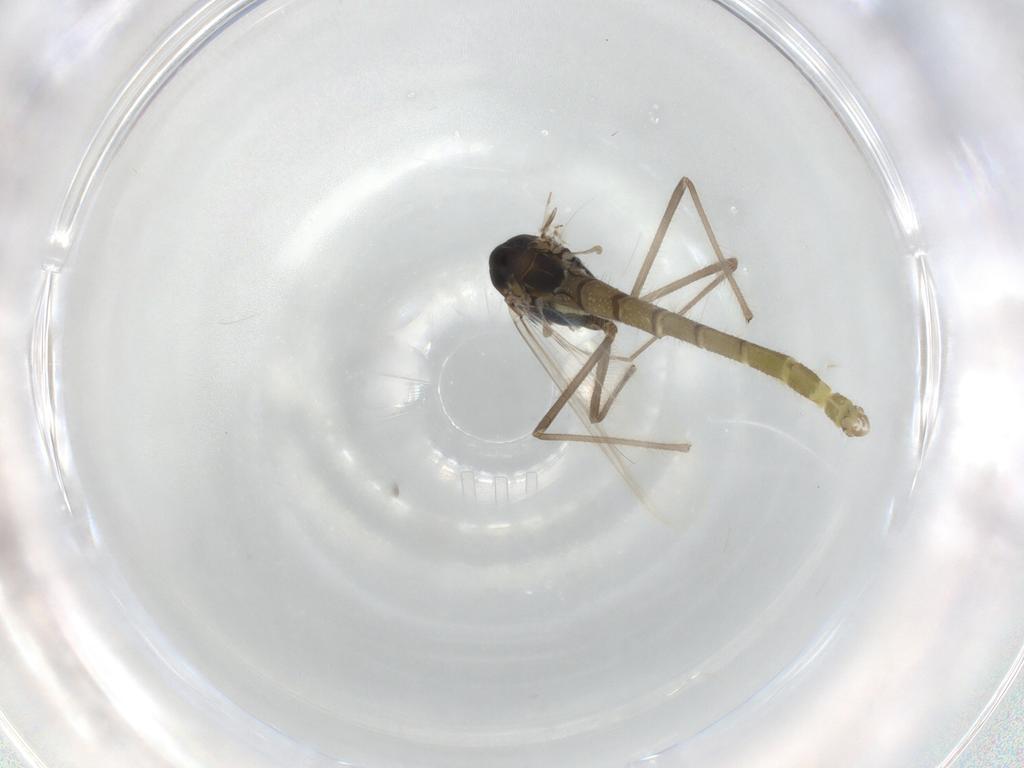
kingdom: Animalia
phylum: Arthropoda
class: Insecta
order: Diptera
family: Chironomidae
